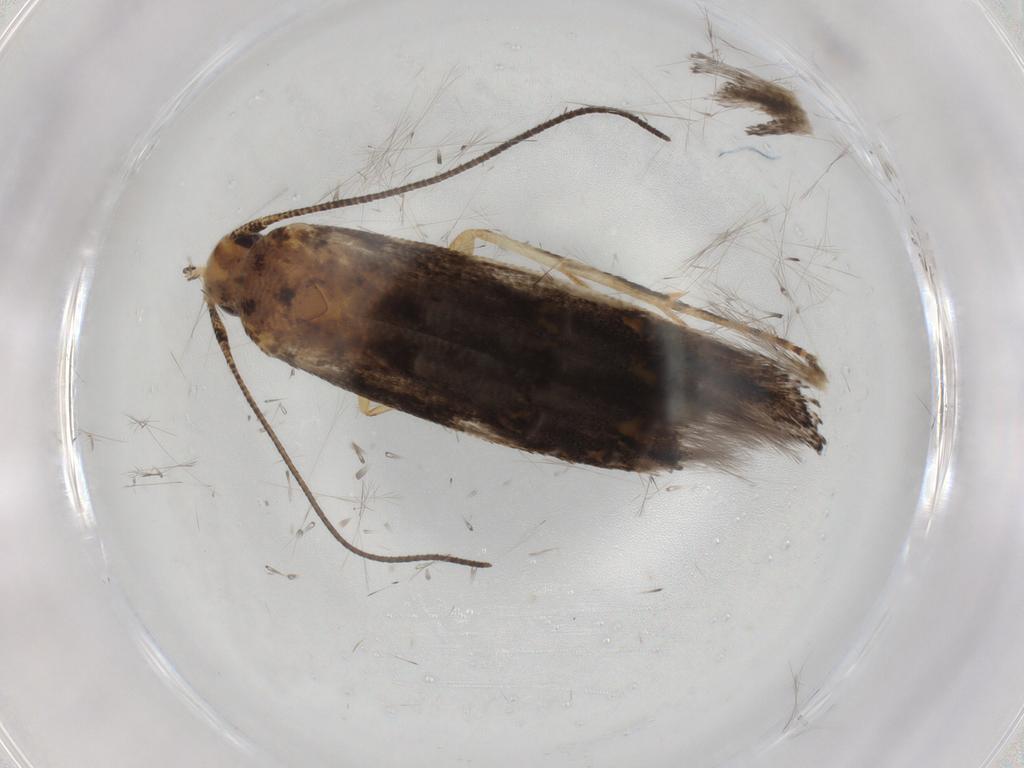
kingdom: Animalia
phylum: Arthropoda
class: Insecta
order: Lepidoptera
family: Gelechiidae
